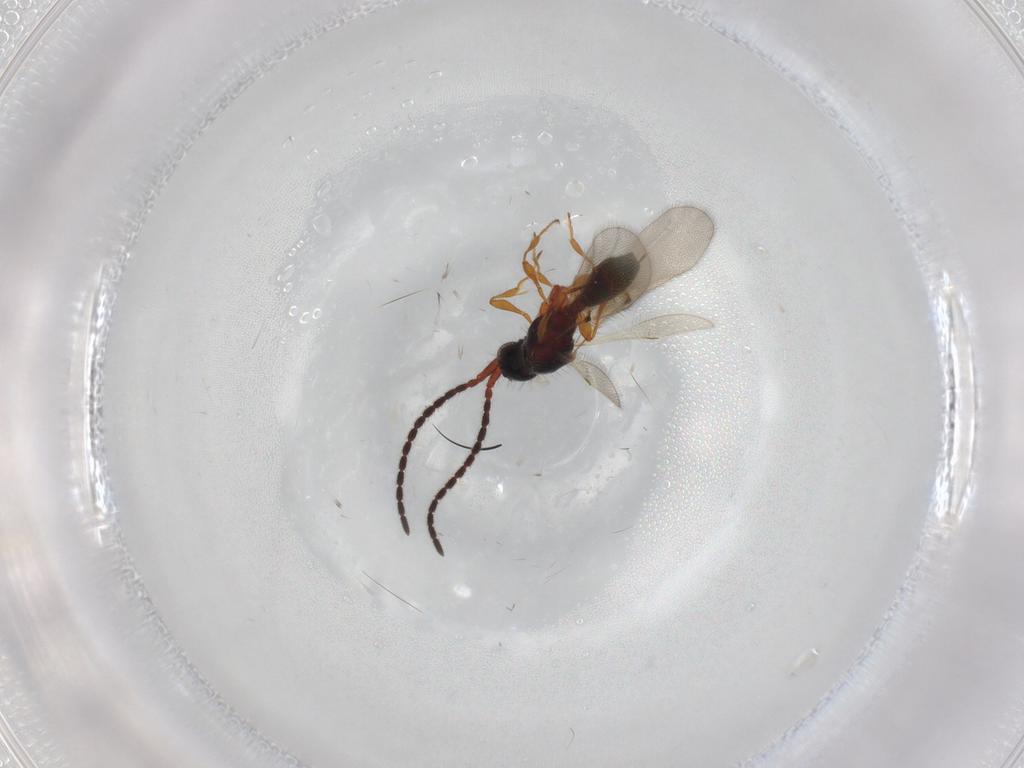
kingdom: Animalia
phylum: Arthropoda
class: Insecta
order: Hymenoptera
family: Diapriidae
